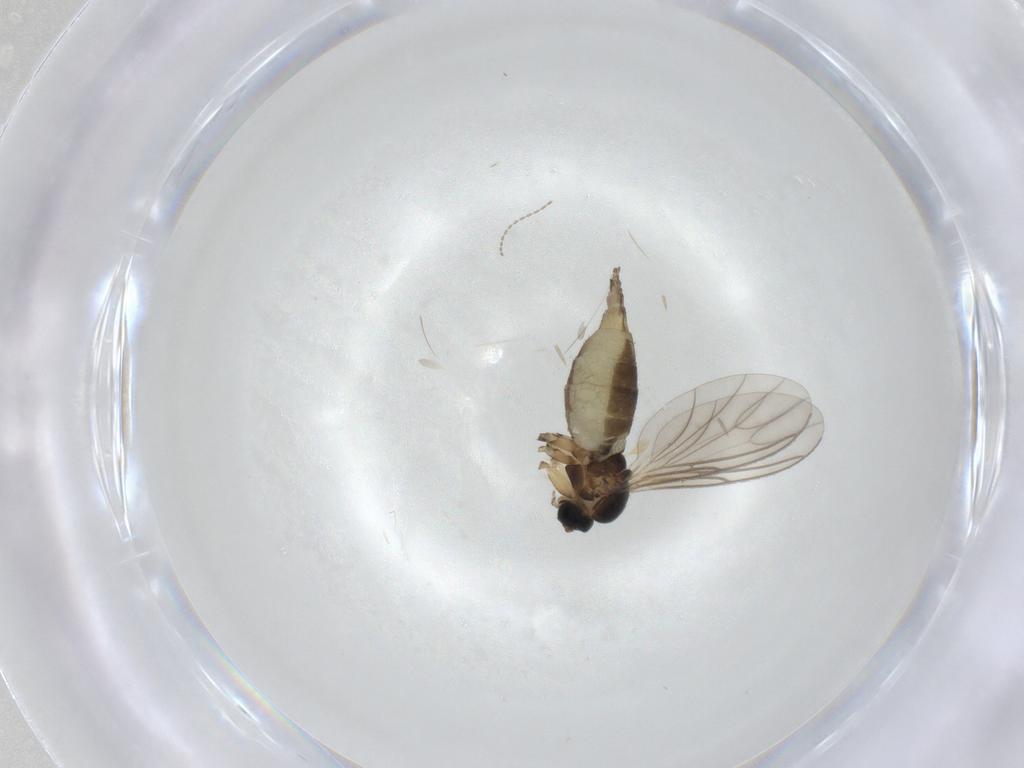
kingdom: Animalia
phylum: Arthropoda
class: Insecta
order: Diptera
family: Cecidomyiidae
